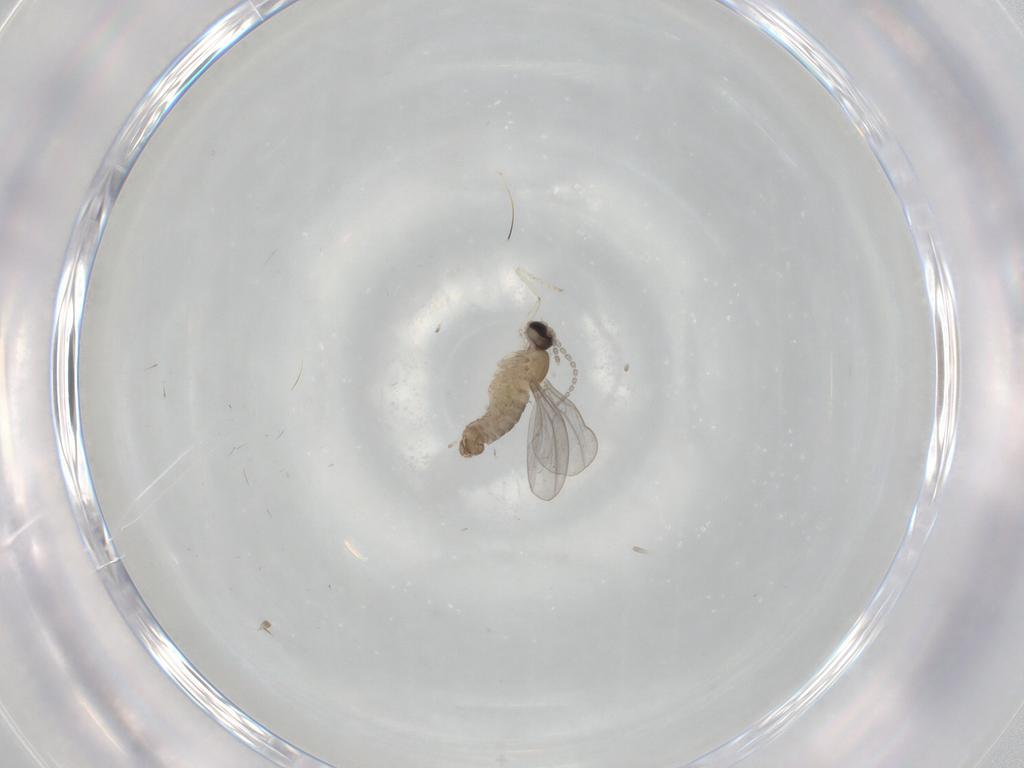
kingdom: Animalia
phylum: Arthropoda
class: Insecta
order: Diptera
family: Cecidomyiidae
